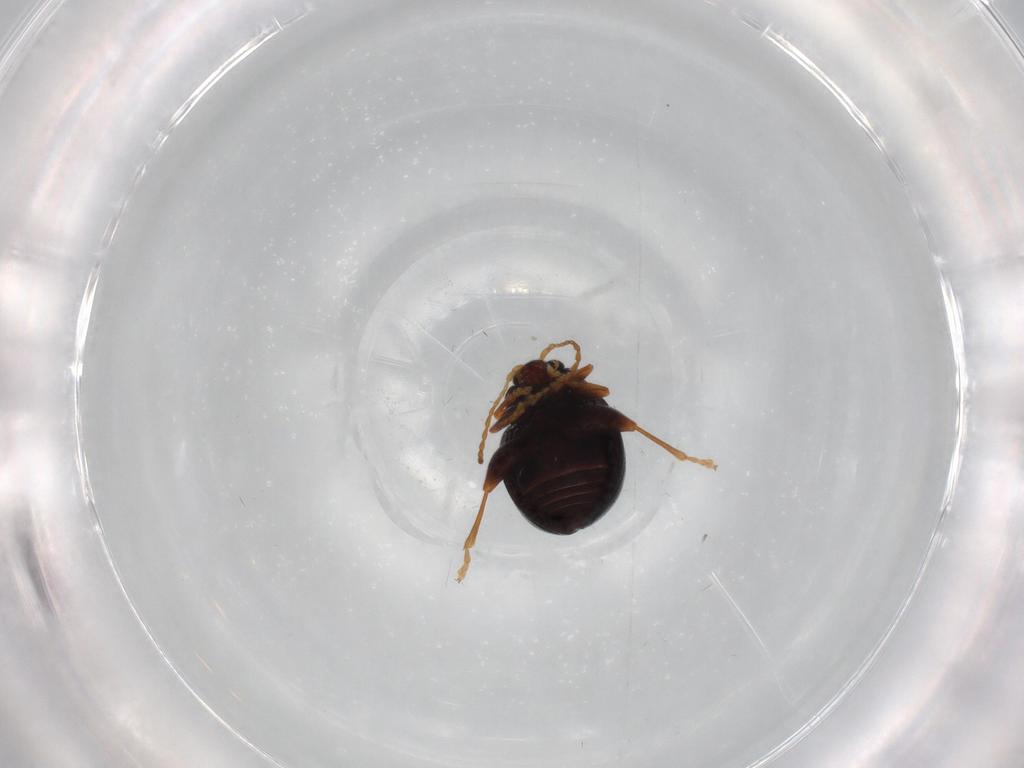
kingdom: Animalia
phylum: Arthropoda
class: Insecta
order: Coleoptera
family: Chrysomelidae
